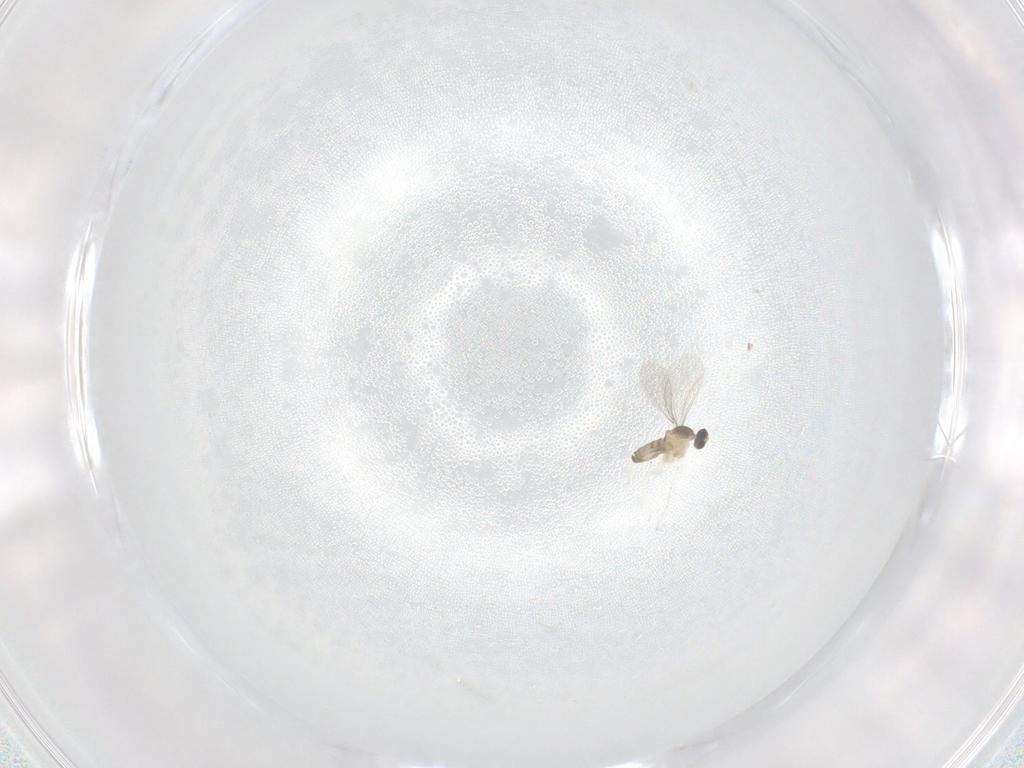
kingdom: Animalia
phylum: Arthropoda
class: Insecta
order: Diptera
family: Cecidomyiidae
